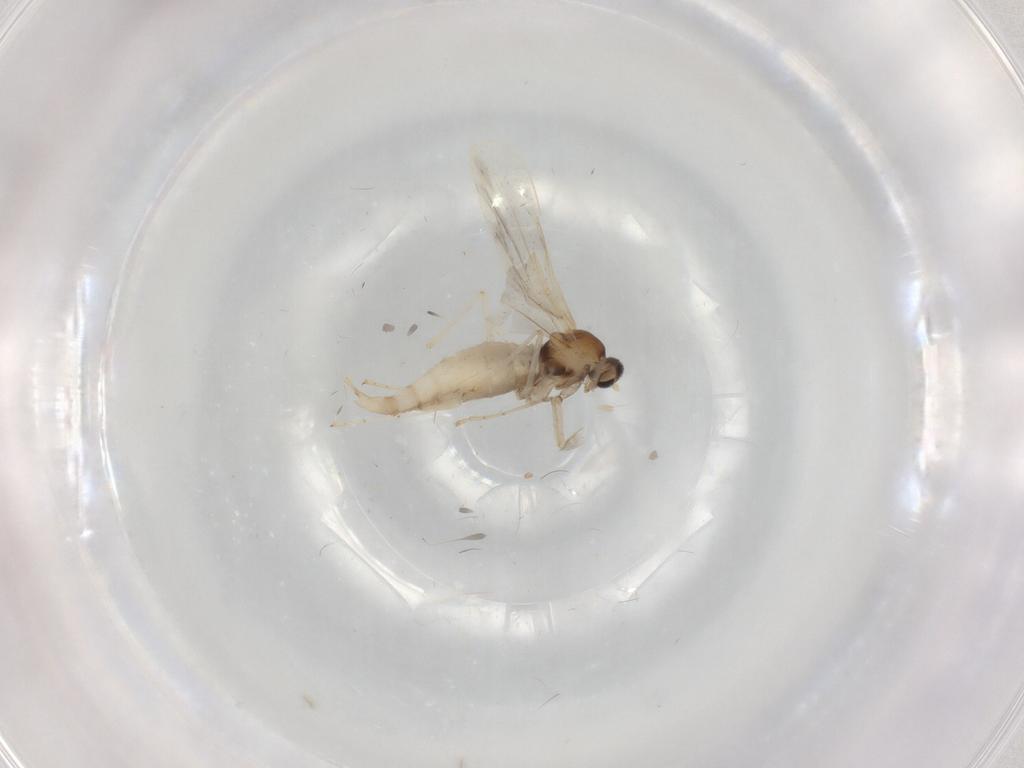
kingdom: Animalia
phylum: Arthropoda
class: Insecta
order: Diptera
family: Cecidomyiidae
